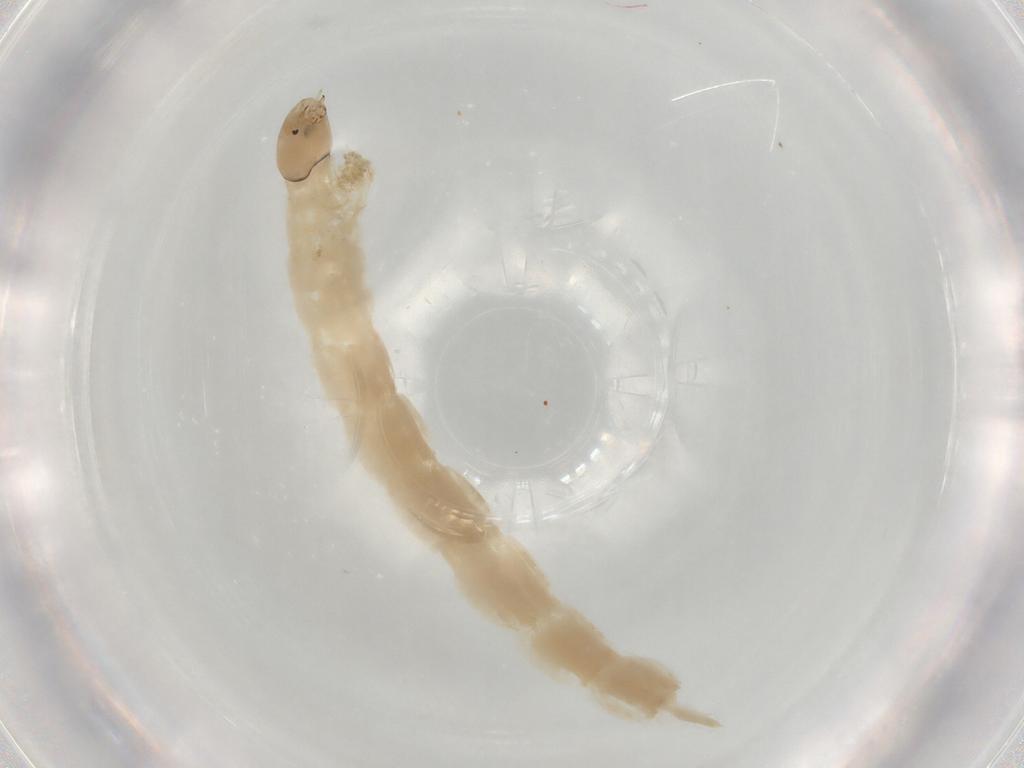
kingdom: Animalia
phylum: Arthropoda
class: Insecta
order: Diptera
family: Chironomidae
